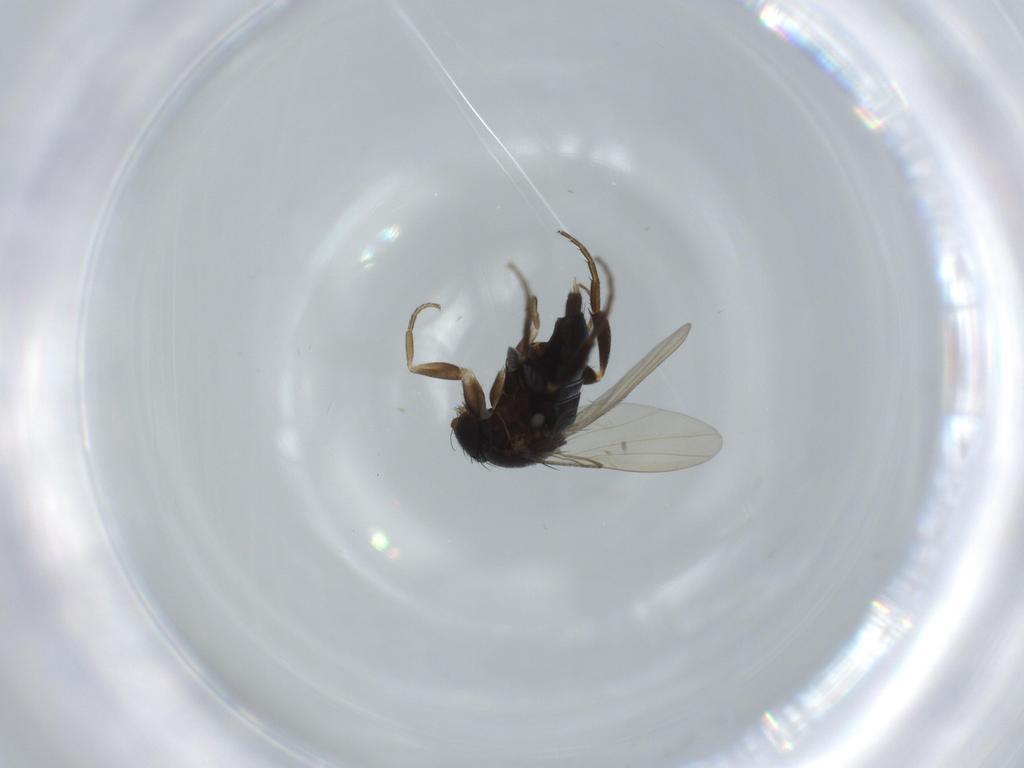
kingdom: Animalia
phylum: Arthropoda
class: Insecta
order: Diptera
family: Phoridae
